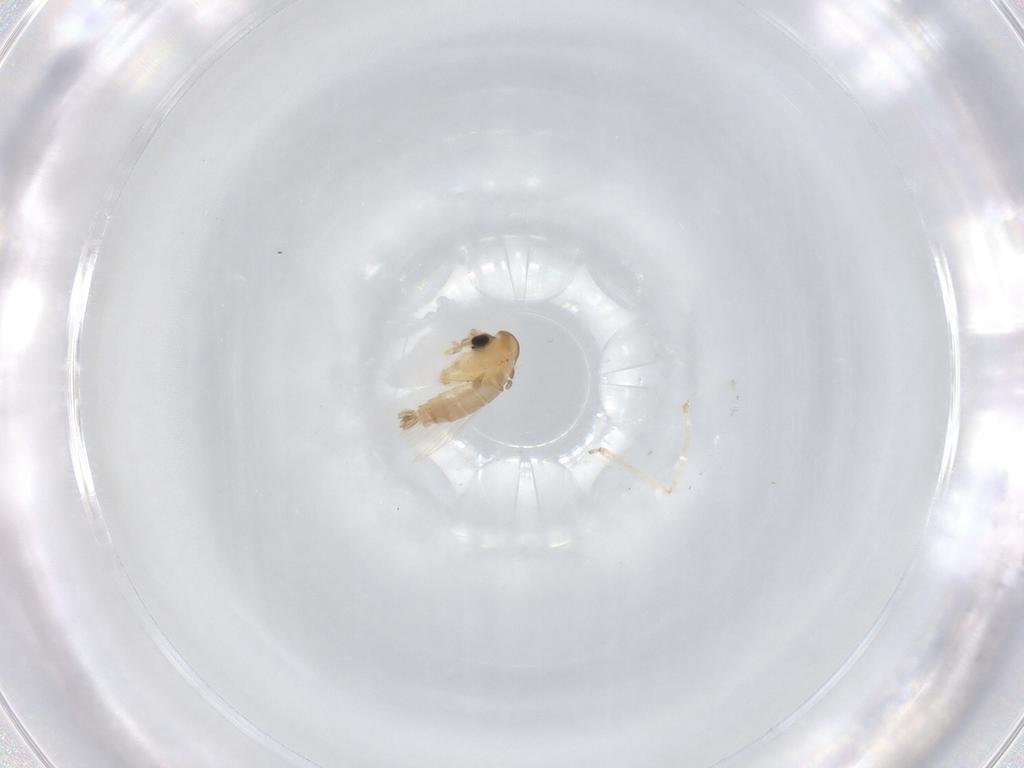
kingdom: Animalia
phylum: Arthropoda
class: Insecta
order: Diptera
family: Psychodidae
